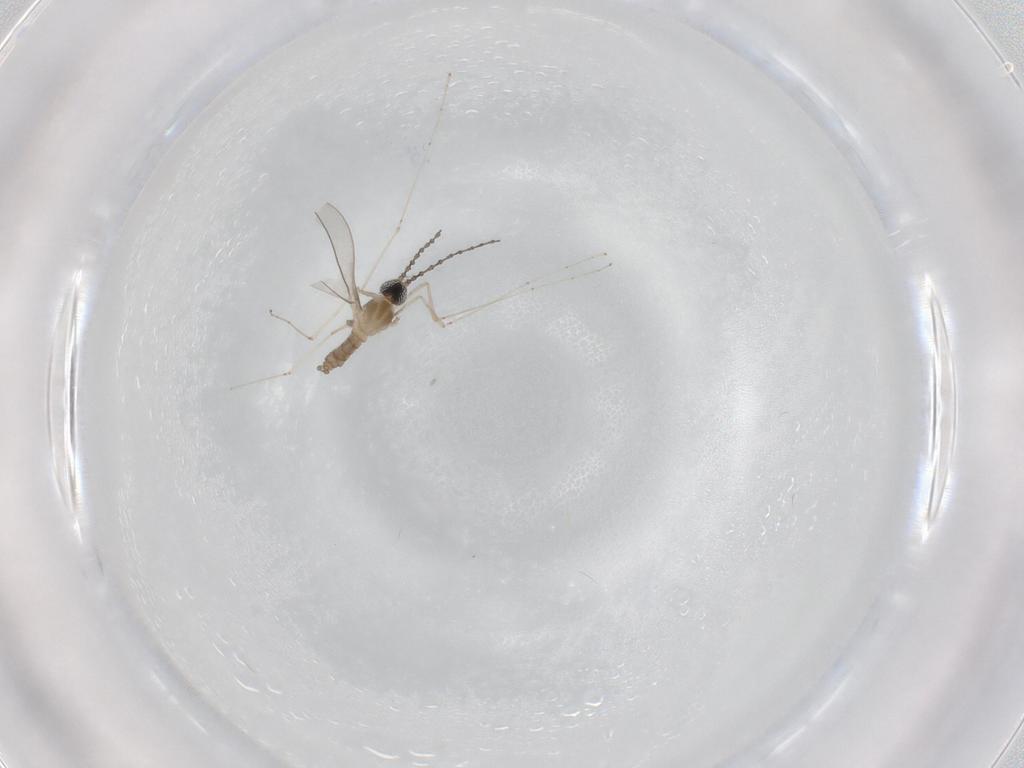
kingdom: Animalia
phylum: Arthropoda
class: Insecta
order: Diptera
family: Cecidomyiidae
